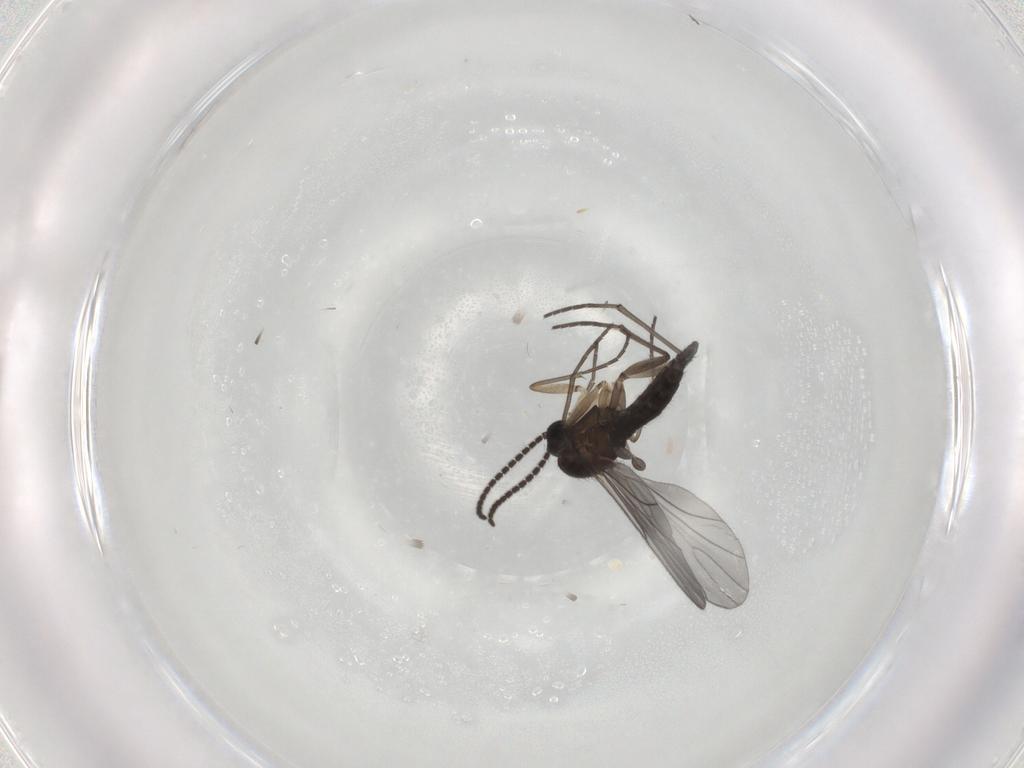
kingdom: Animalia
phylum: Arthropoda
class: Insecta
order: Diptera
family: Sciaridae
